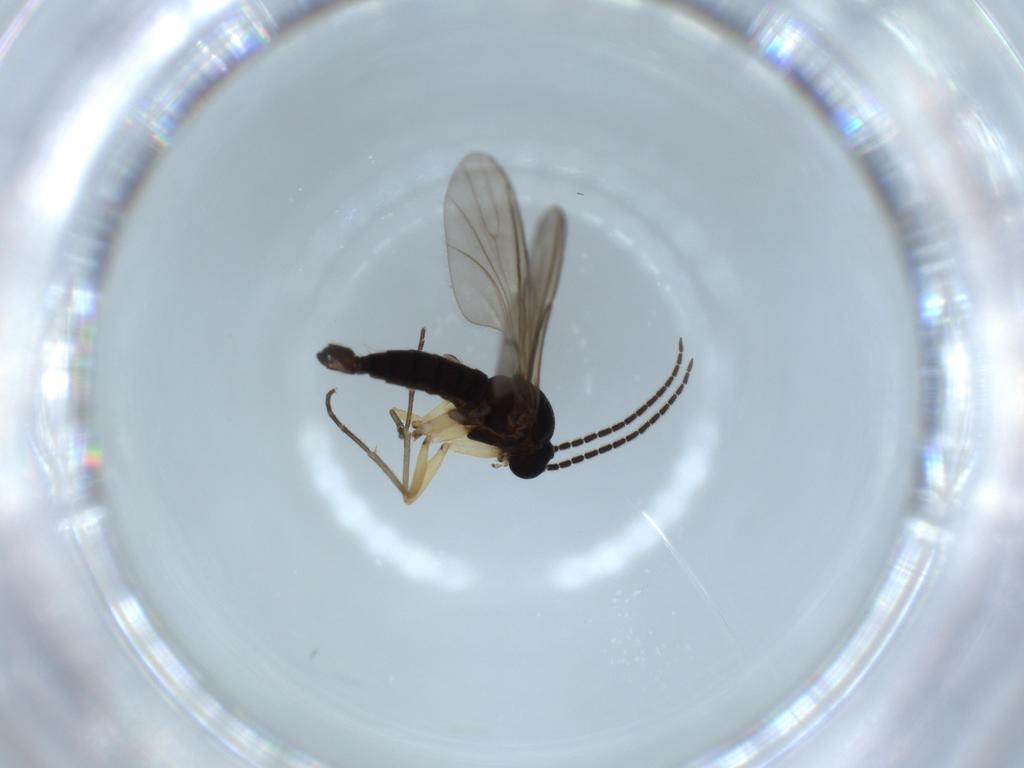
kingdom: Animalia
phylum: Arthropoda
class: Insecta
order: Diptera
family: Sciaridae
